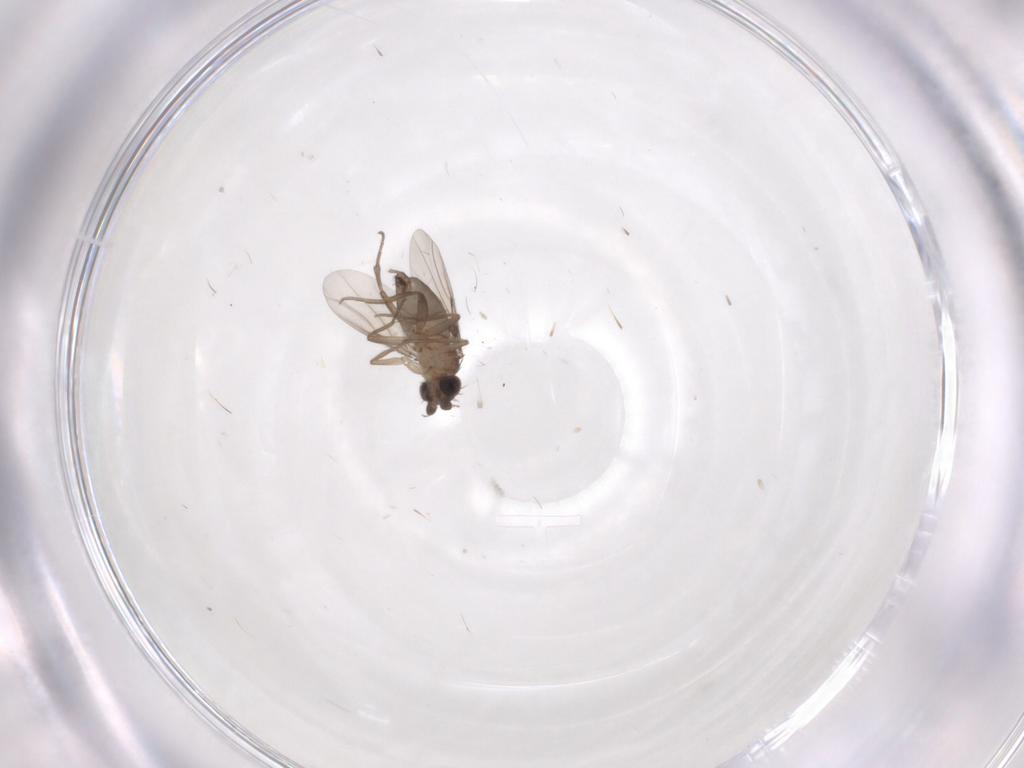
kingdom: Animalia
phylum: Arthropoda
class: Insecta
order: Diptera
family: Phoridae
